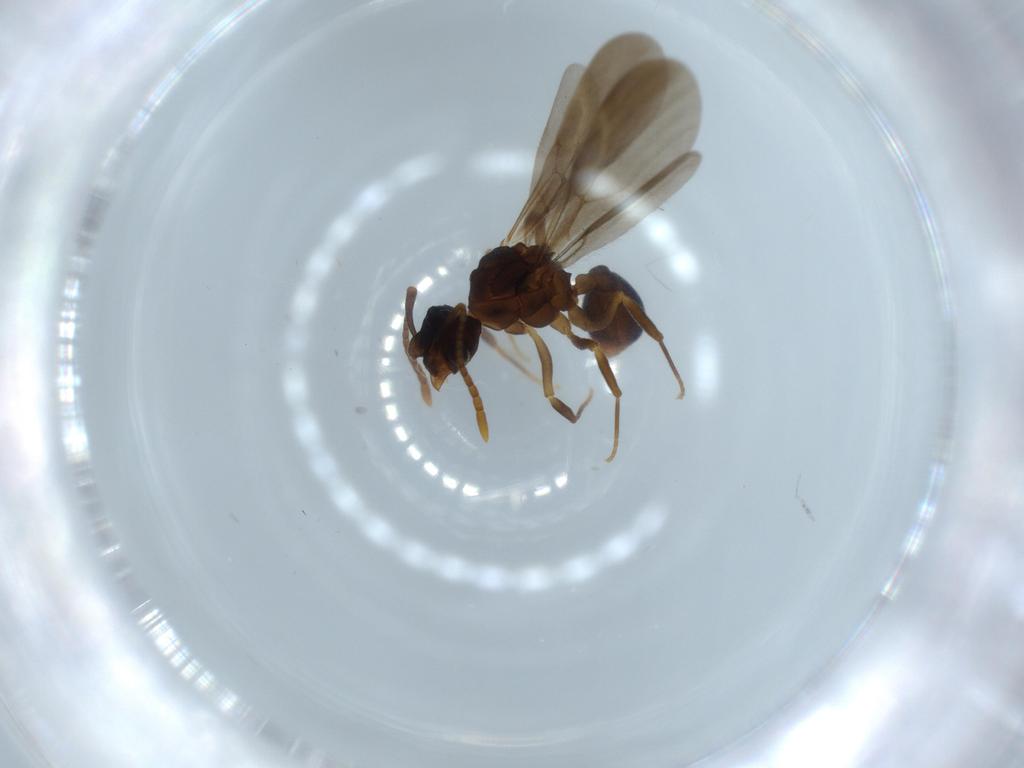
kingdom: Animalia
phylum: Arthropoda
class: Insecta
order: Hymenoptera
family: Formicidae
